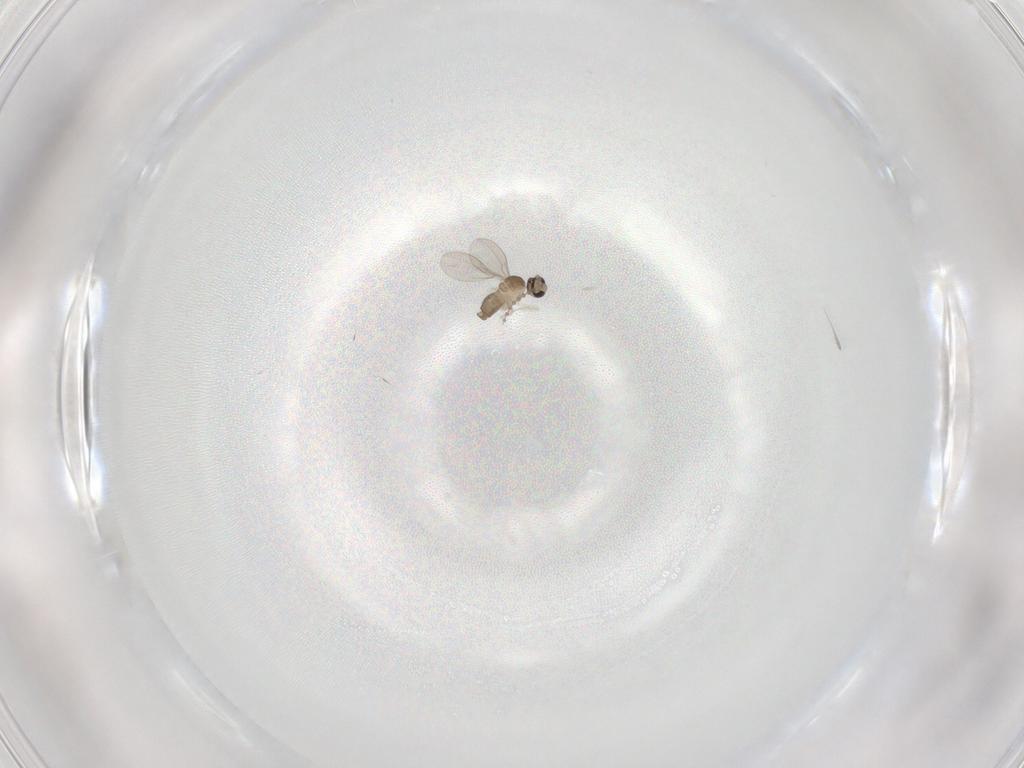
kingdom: Animalia
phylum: Arthropoda
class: Insecta
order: Diptera
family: Cecidomyiidae
